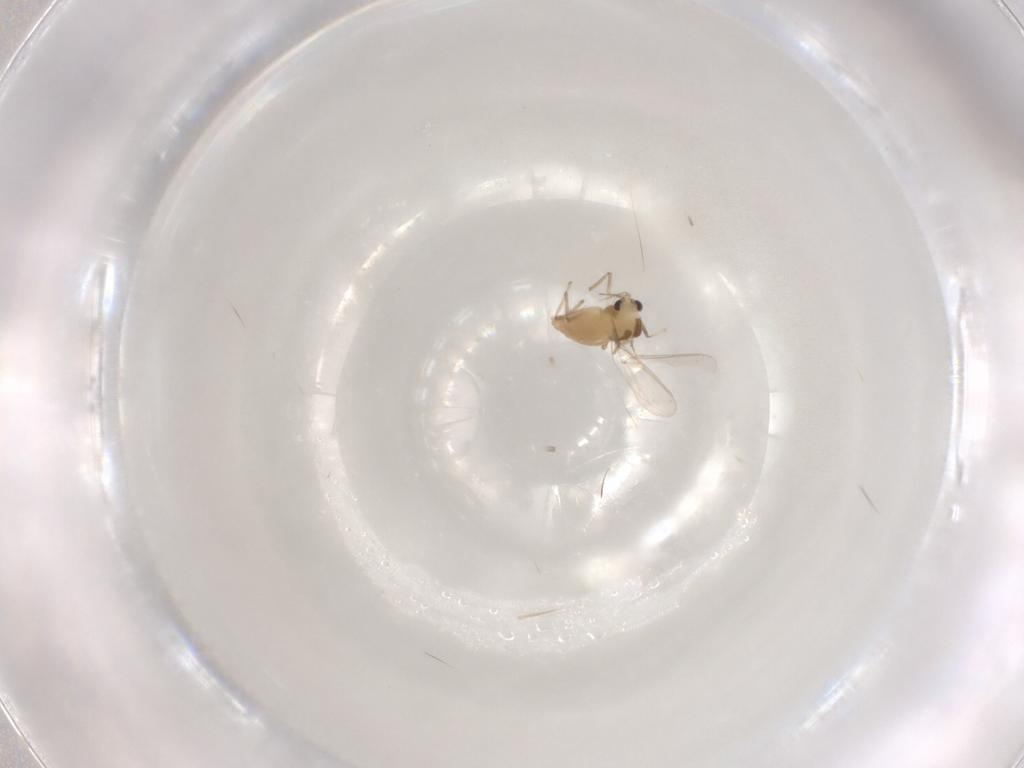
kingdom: Animalia
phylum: Arthropoda
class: Insecta
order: Diptera
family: Chironomidae
